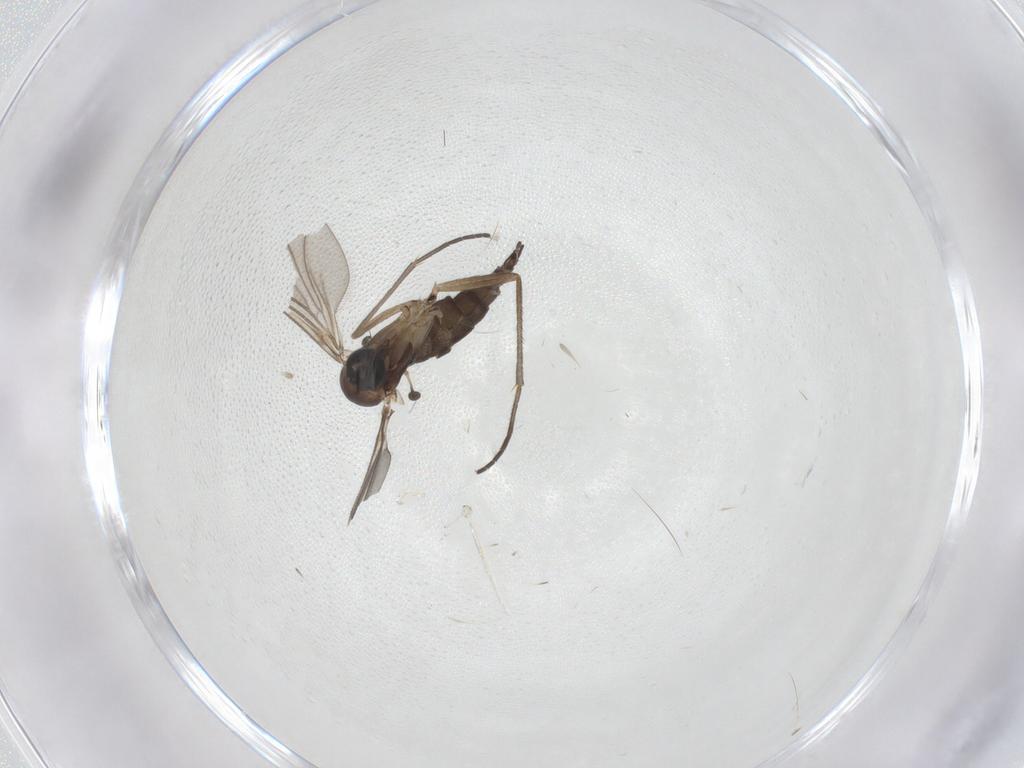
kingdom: Animalia
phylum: Arthropoda
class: Insecta
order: Diptera
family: Sciaridae
